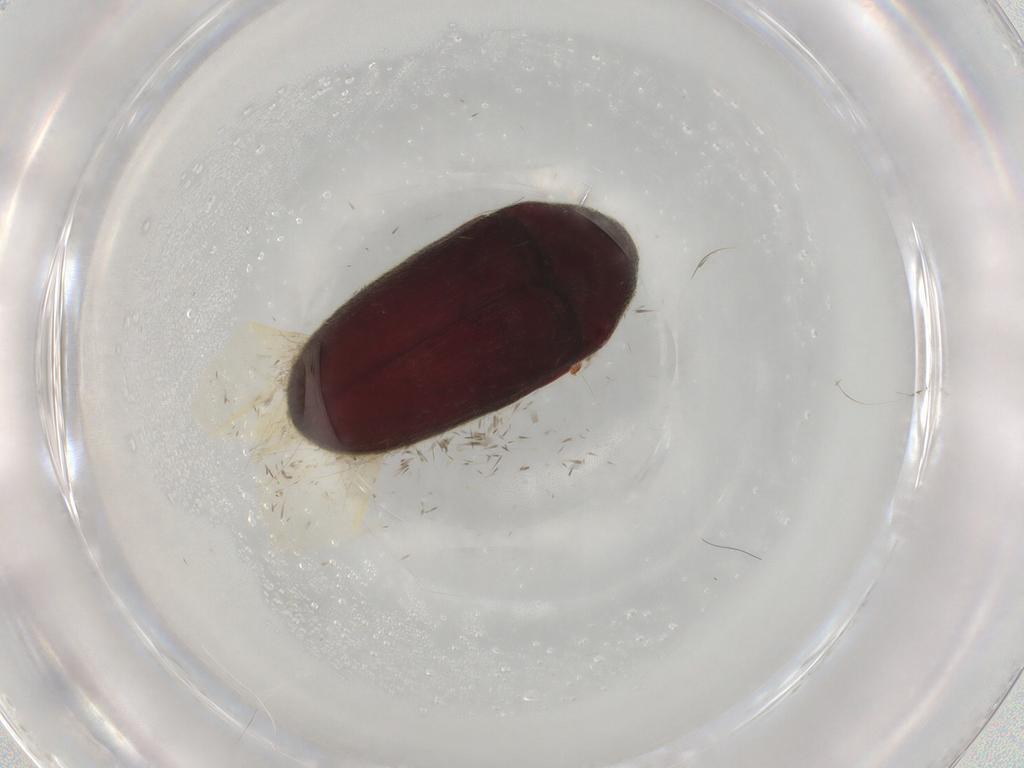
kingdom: Animalia
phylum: Arthropoda
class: Insecta
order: Coleoptera
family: Throscidae
